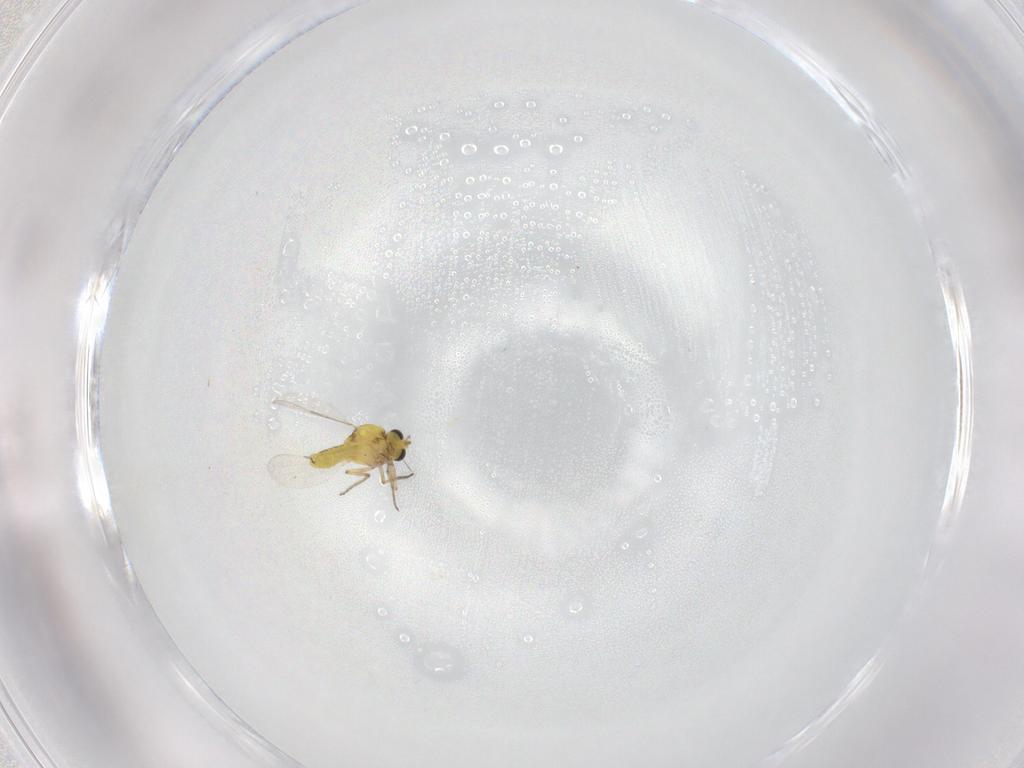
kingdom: Animalia
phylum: Arthropoda
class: Insecta
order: Diptera
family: Ceratopogonidae
